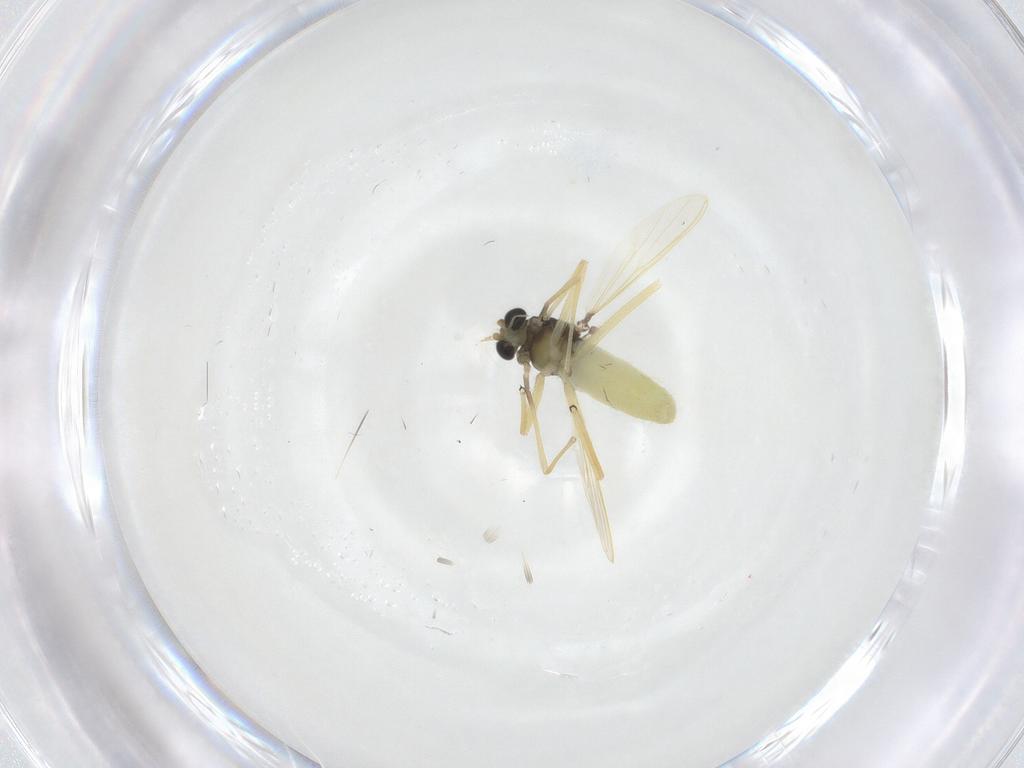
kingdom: Animalia
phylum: Arthropoda
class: Insecta
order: Diptera
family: Chironomidae
